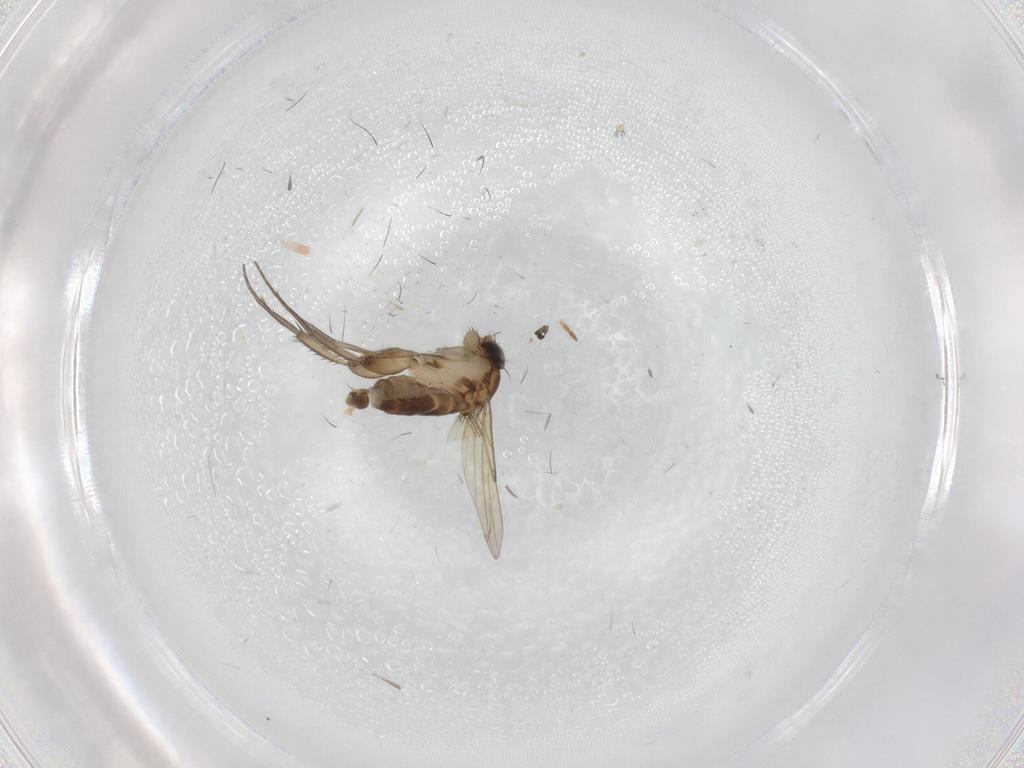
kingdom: Animalia
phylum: Arthropoda
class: Insecta
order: Diptera
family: Phoridae
